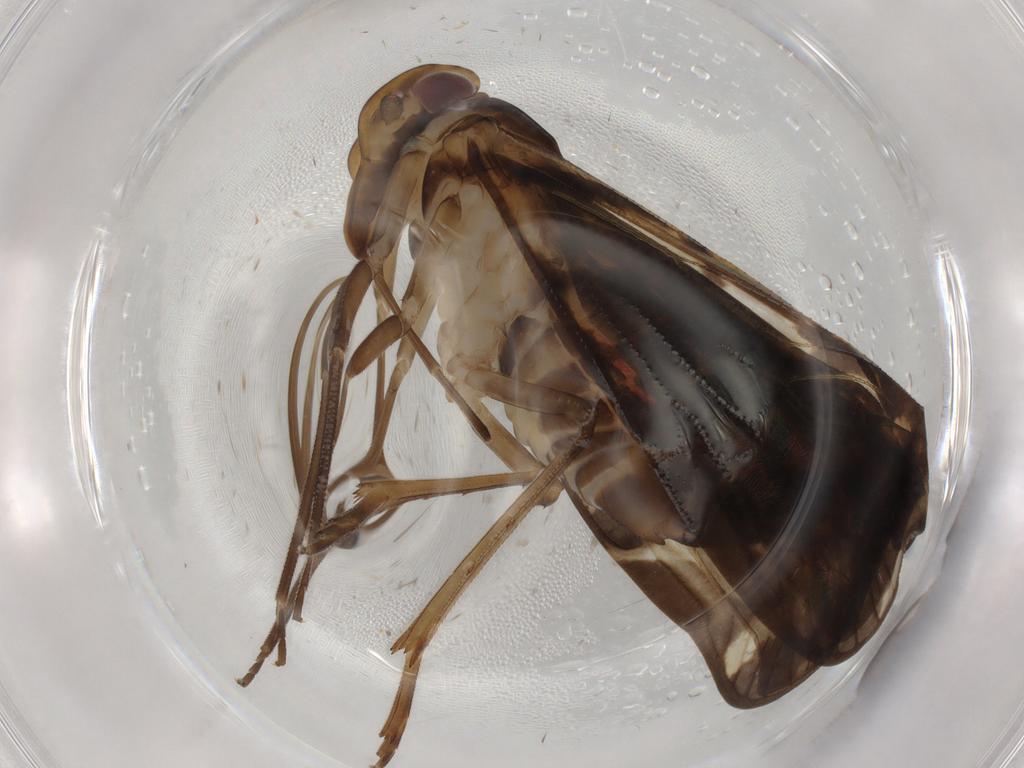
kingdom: Animalia
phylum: Arthropoda
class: Insecta
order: Hemiptera
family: Cixiidae
